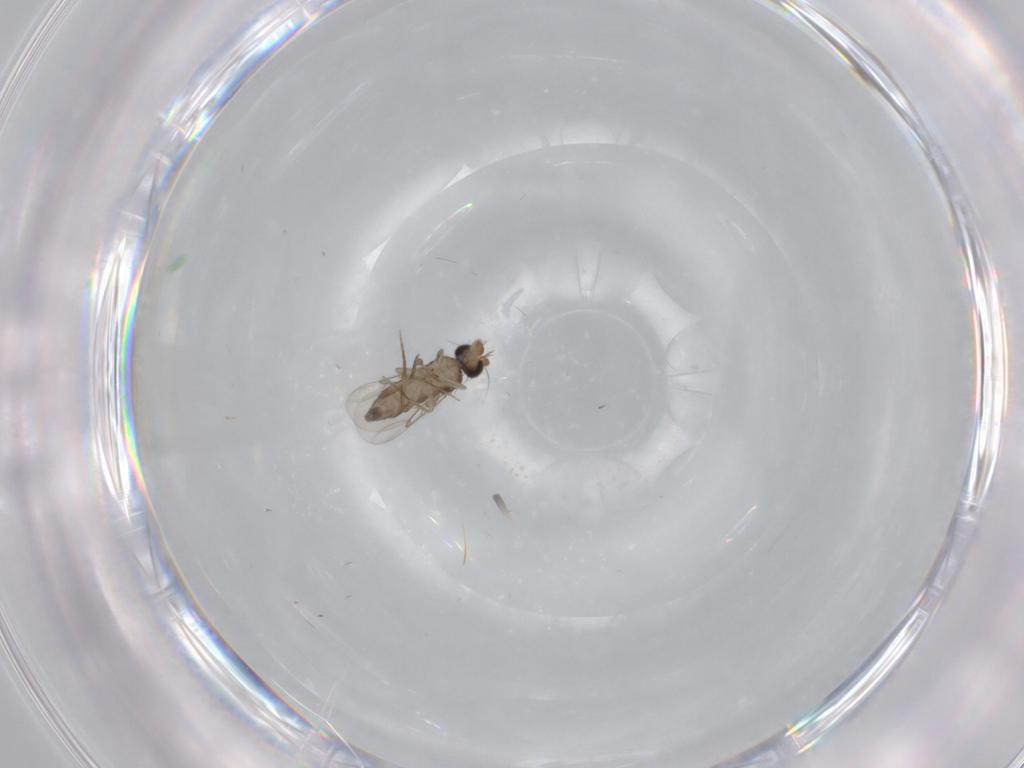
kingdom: Animalia
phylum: Arthropoda
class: Insecta
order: Diptera
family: Phoridae
